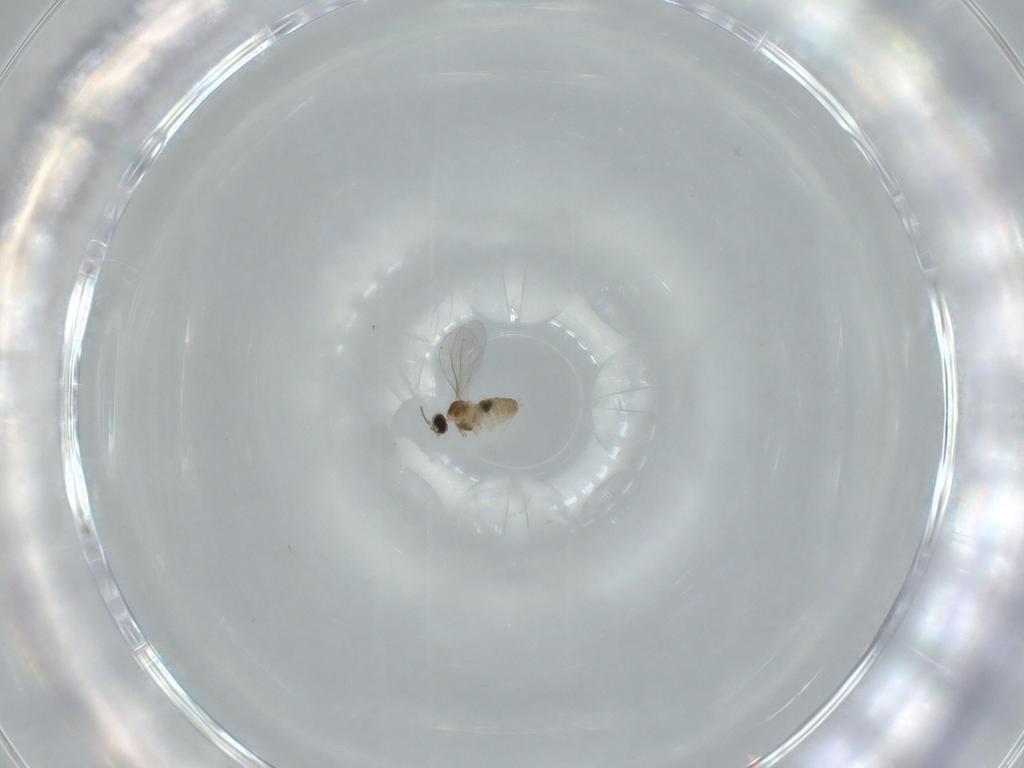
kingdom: Animalia
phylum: Arthropoda
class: Insecta
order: Diptera
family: Cecidomyiidae
